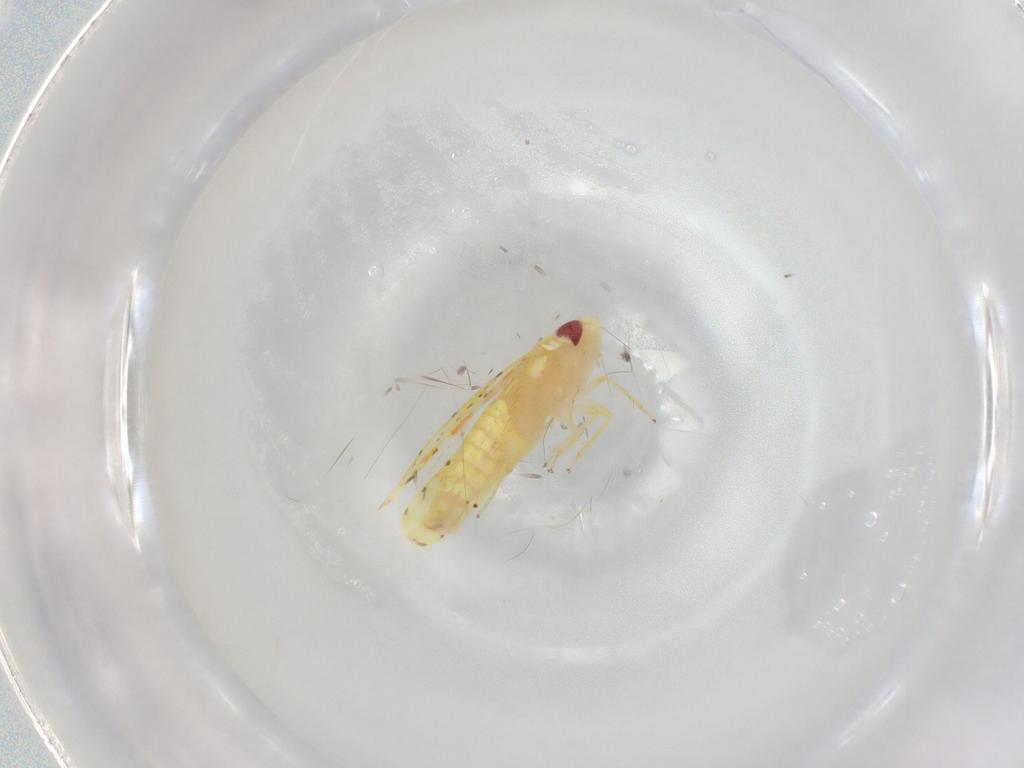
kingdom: Animalia
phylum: Arthropoda
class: Insecta
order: Hemiptera
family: Cicadellidae
